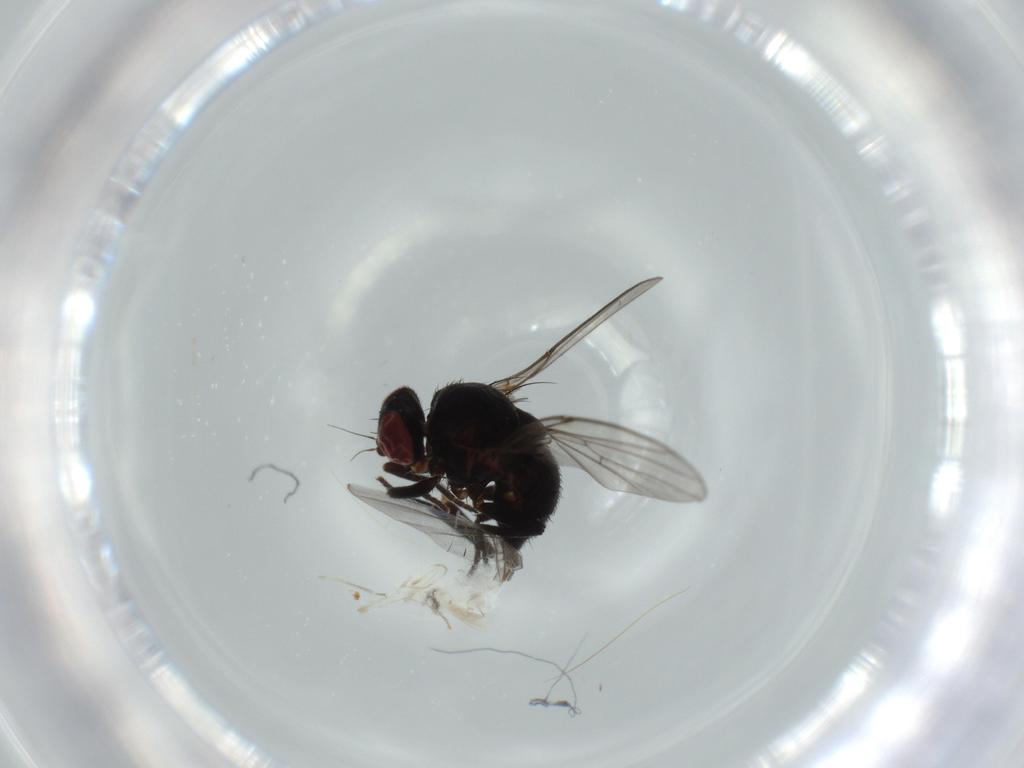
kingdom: Animalia
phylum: Arthropoda
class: Insecta
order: Diptera
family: Agromyzidae
